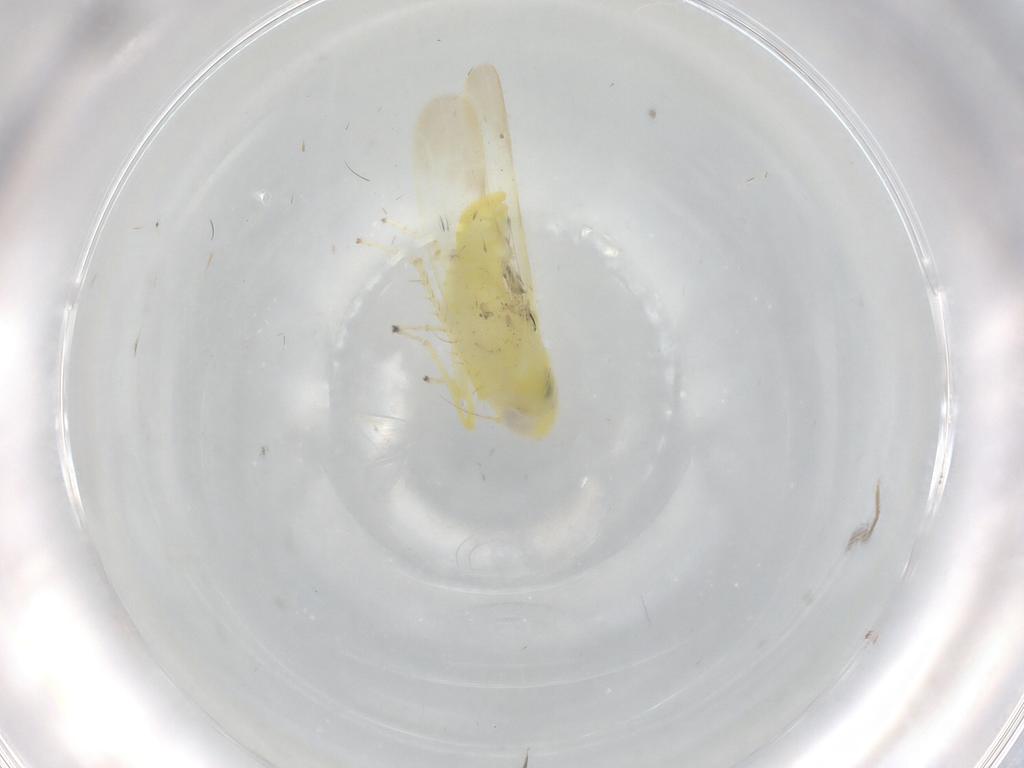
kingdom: Animalia
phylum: Arthropoda
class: Insecta
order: Hemiptera
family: Cicadellidae
